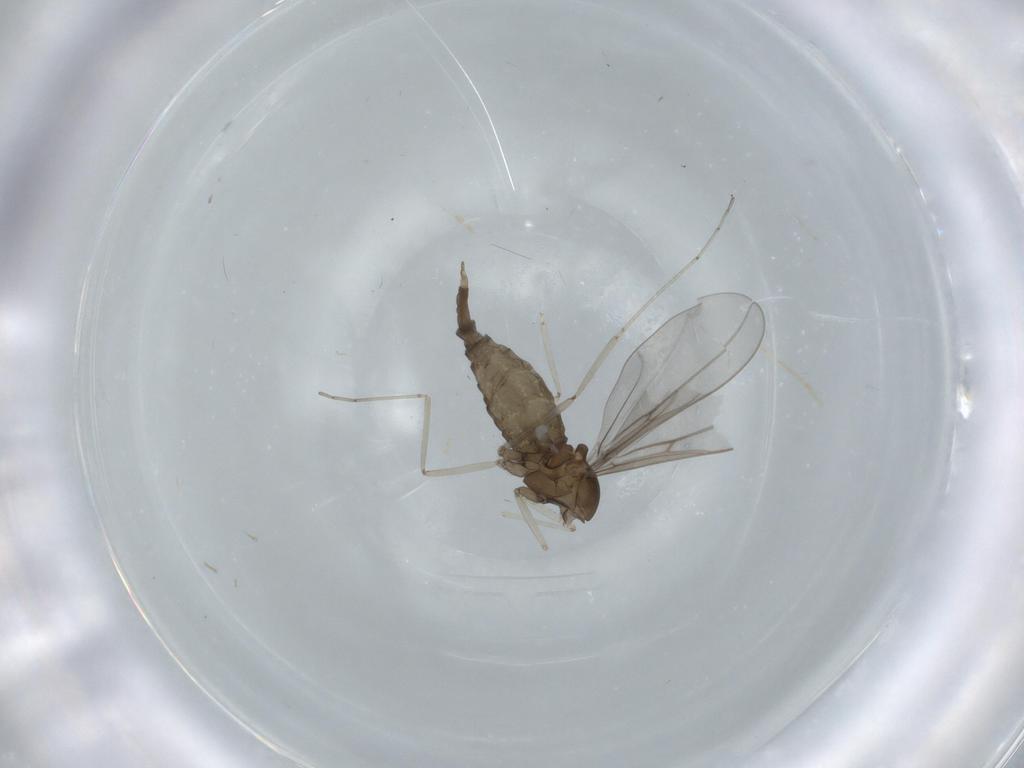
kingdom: Animalia
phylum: Arthropoda
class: Insecta
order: Diptera
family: Cecidomyiidae
